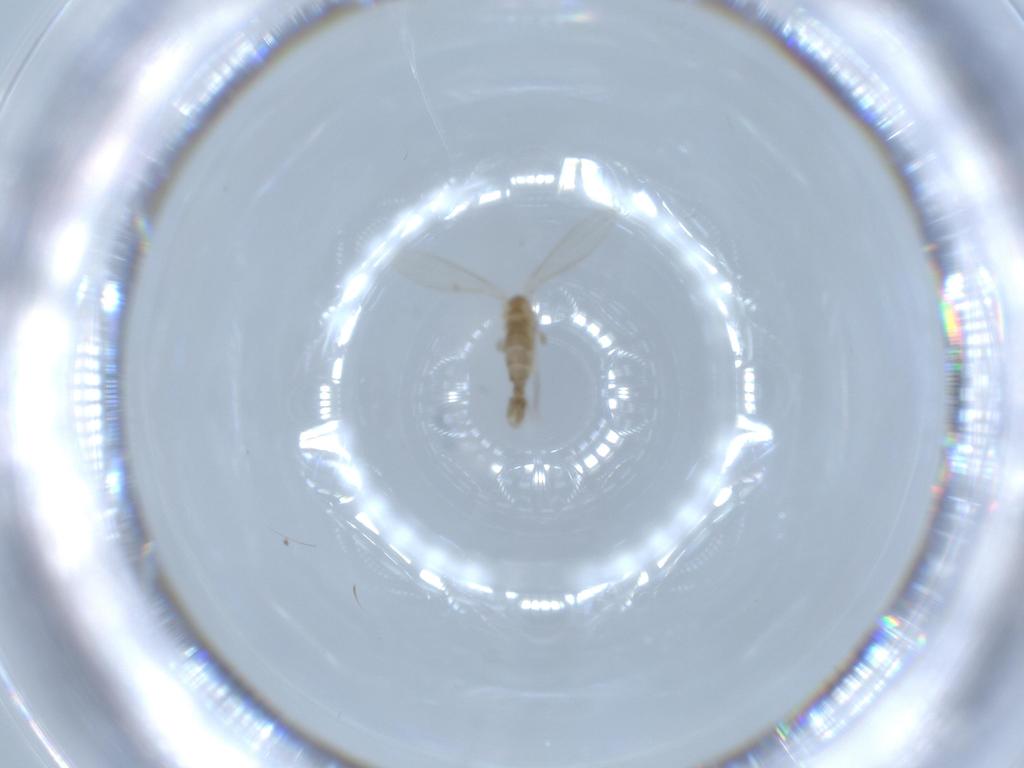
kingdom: Animalia
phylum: Arthropoda
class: Insecta
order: Diptera
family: Psychodidae
